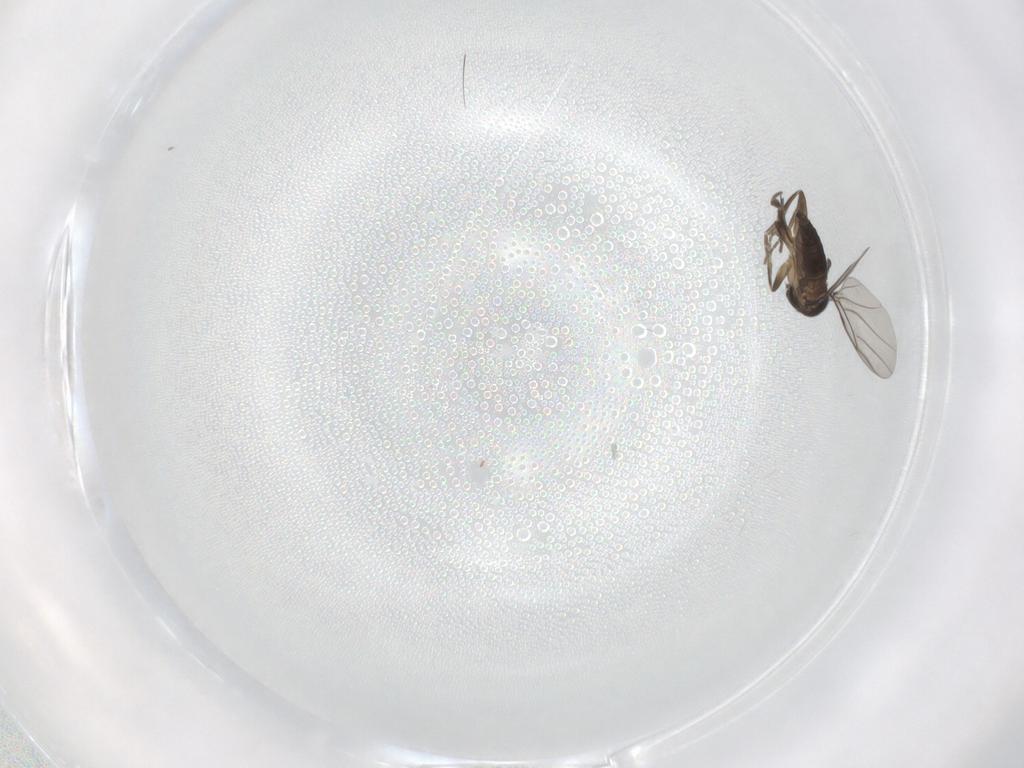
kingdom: Animalia
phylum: Arthropoda
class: Insecta
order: Diptera
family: Phoridae
